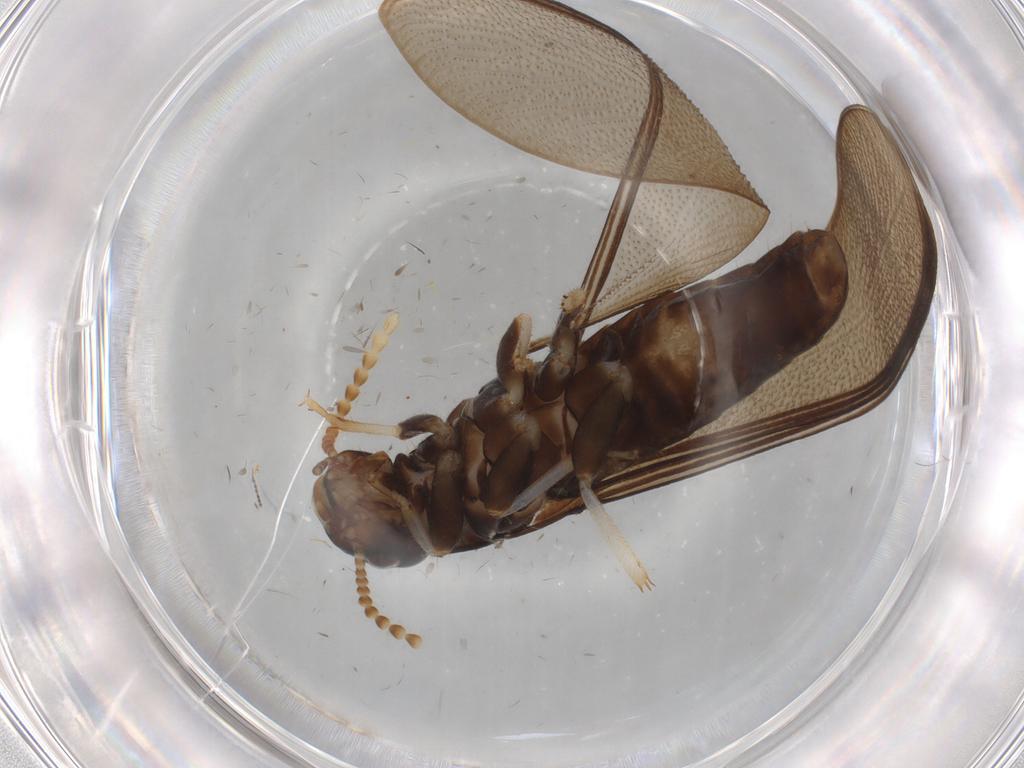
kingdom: Animalia
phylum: Arthropoda
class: Insecta
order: Blattodea
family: Kalotermitidae
